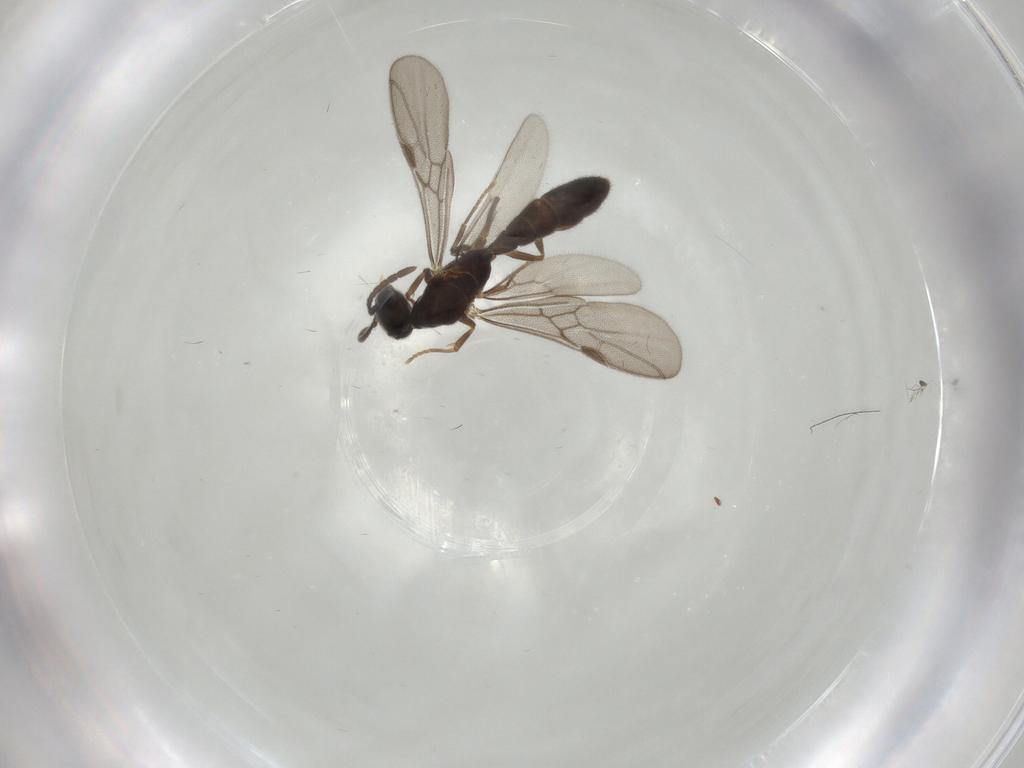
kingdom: Animalia
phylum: Arthropoda
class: Insecta
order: Hymenoptera
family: Formicidae
